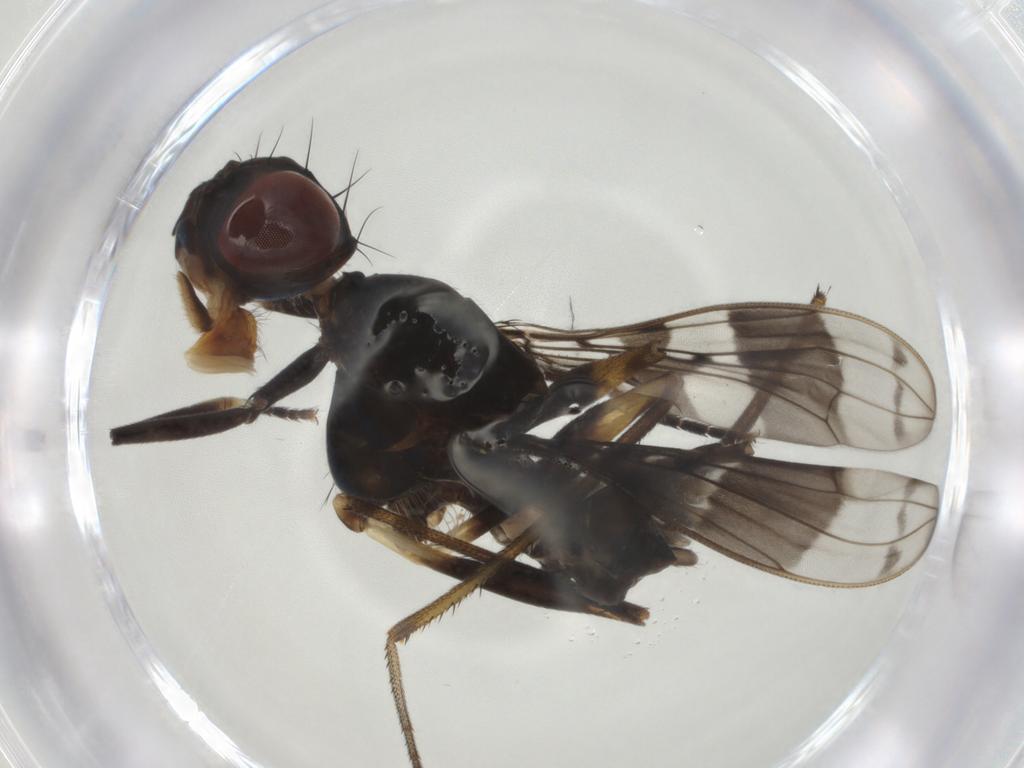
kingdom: Animalia
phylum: Arthropoda
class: Insecta
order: Diptera
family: Micropezidae
